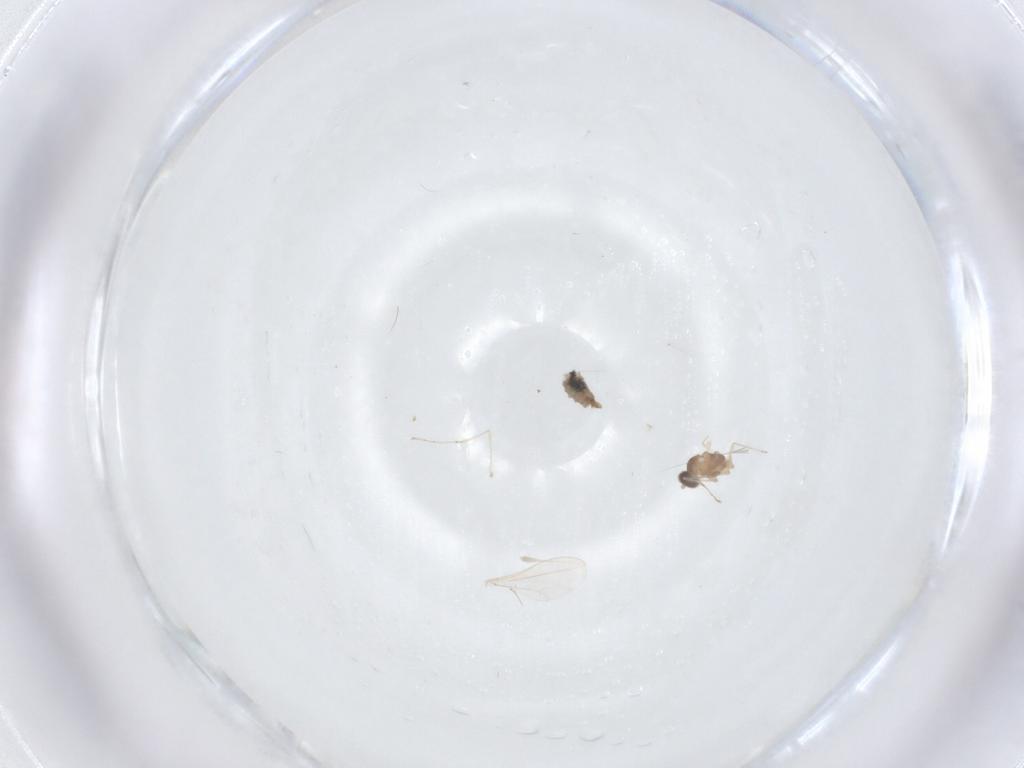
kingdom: Animalia
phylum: Arthropoda
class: Insecta
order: Diptera
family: Cecidomyiidae
